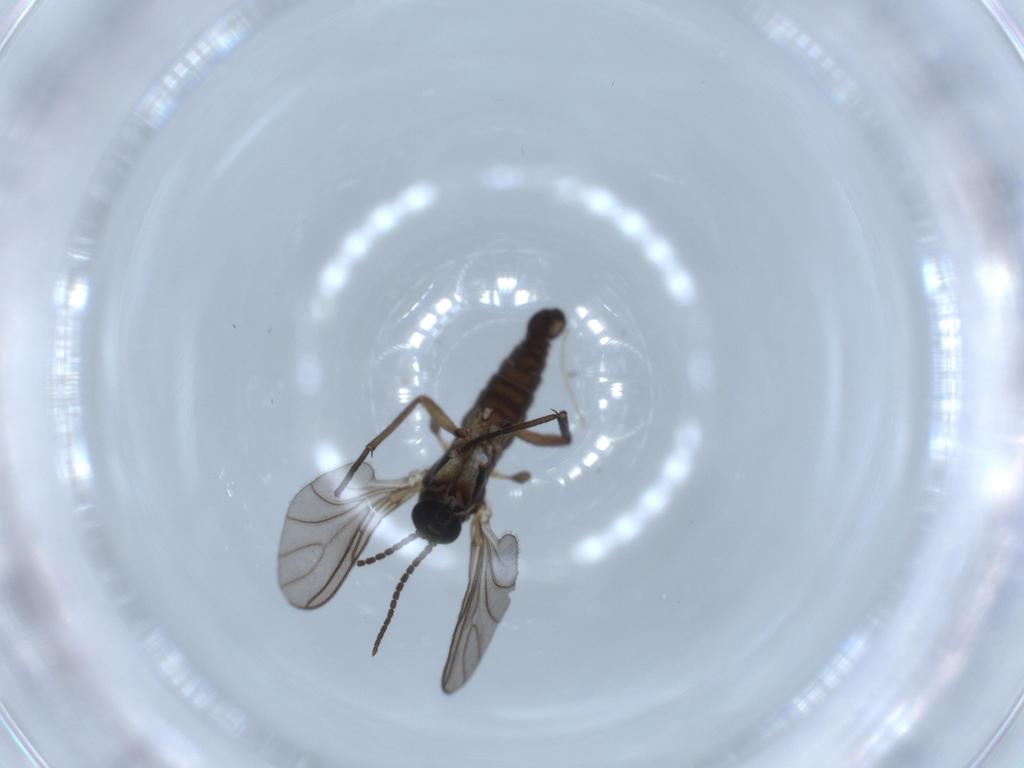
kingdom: Animalia
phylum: Arthropoda
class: Insecta
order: Diptera
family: Sciaridae
